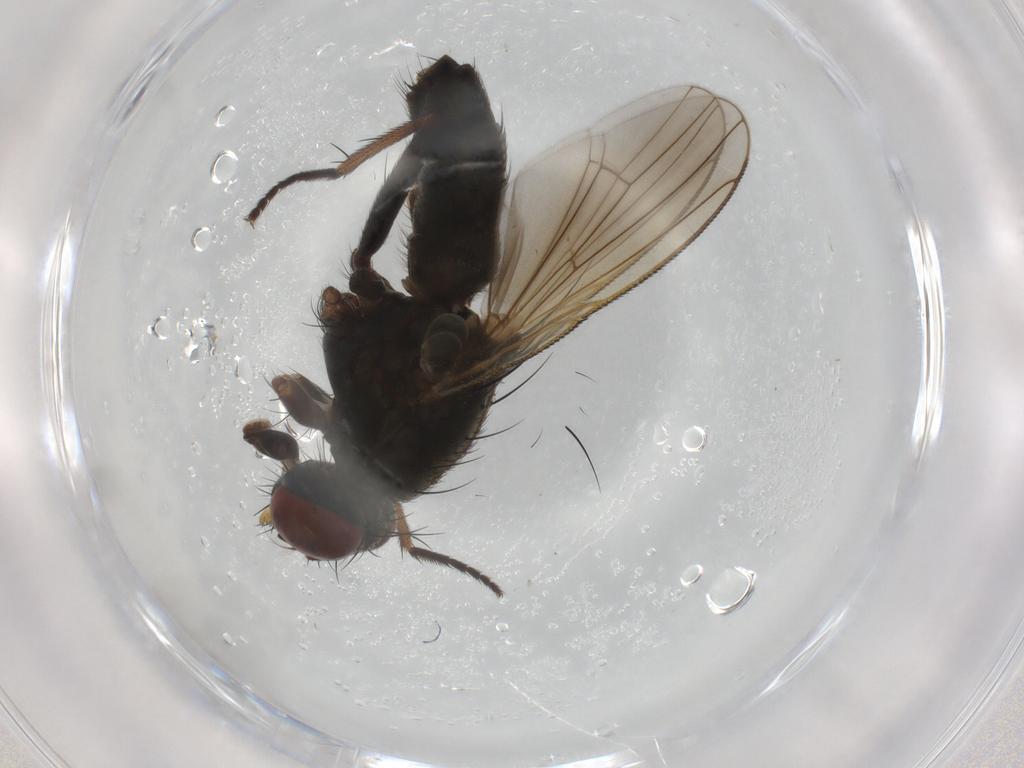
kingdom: Animalia
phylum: Arthropoda
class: Insecta
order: Diptera
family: Muscidae
